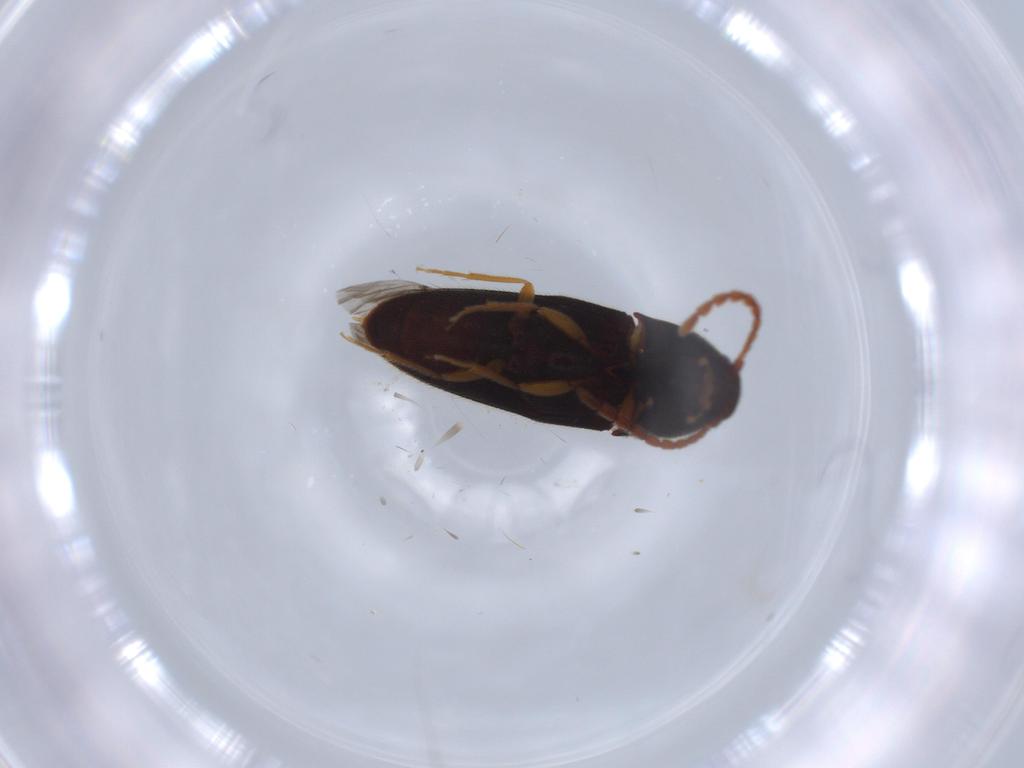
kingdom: Animalia
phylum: Arthropoda
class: Insecta
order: Coleoptera
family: Elateridae
